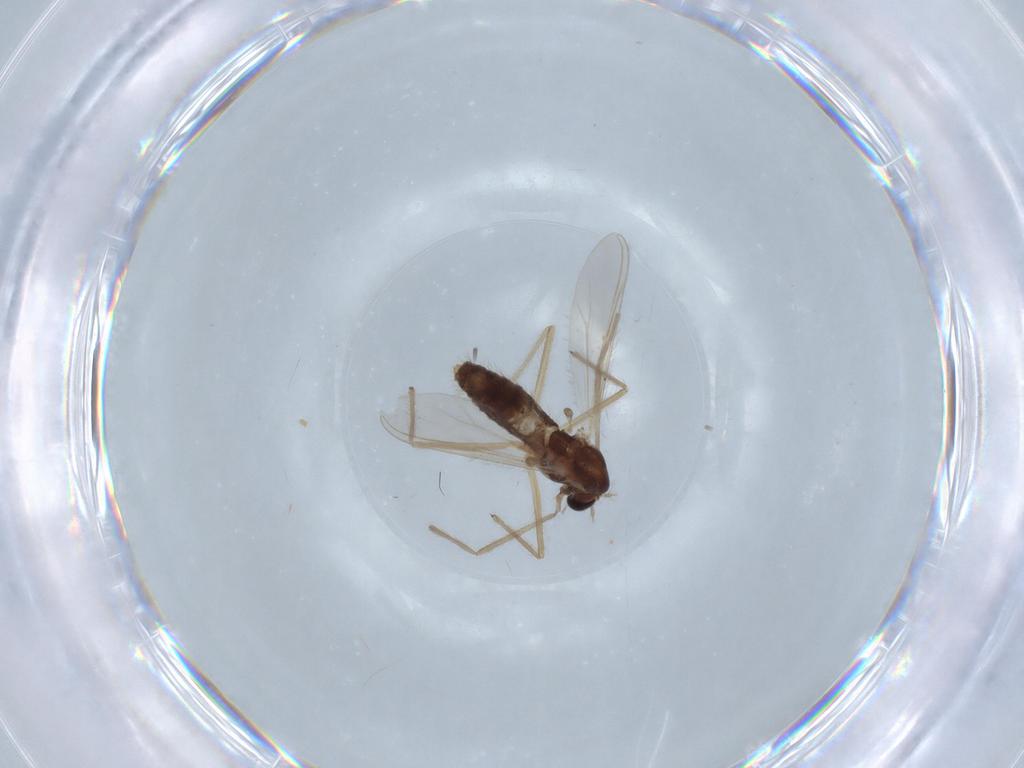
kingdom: Animalia
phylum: Arthropoda
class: Insecta
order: Diptera
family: Chironomidae
